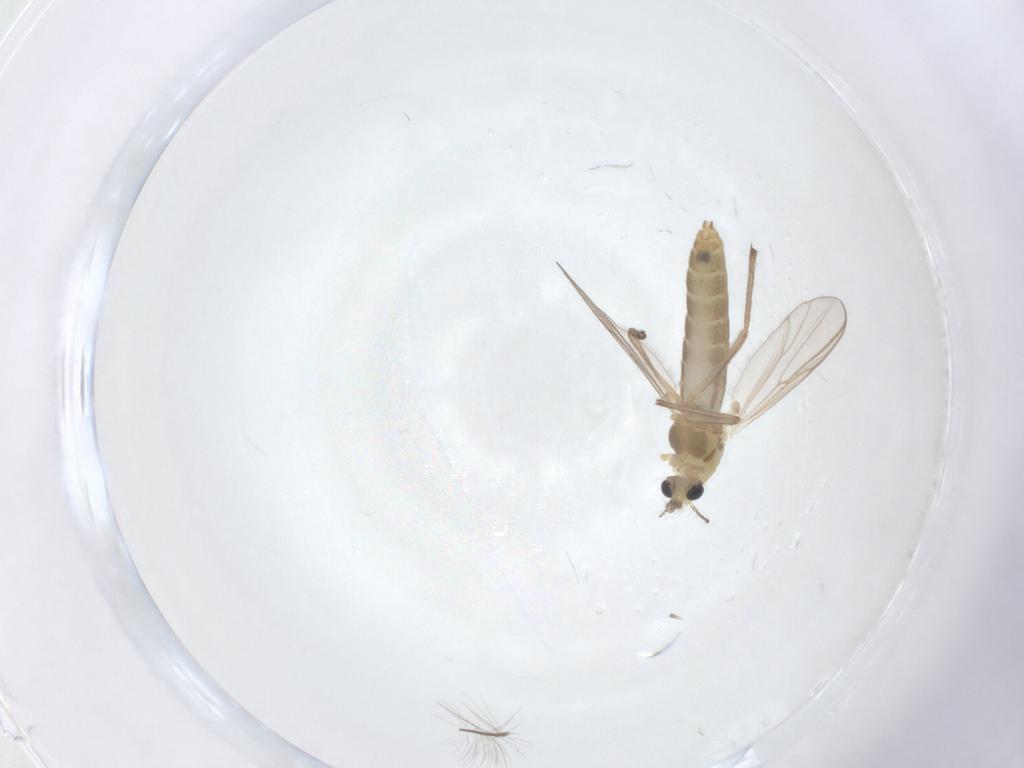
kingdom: Animalia
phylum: Arthropoda
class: Insecta
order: Diptera
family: Chironomidae
